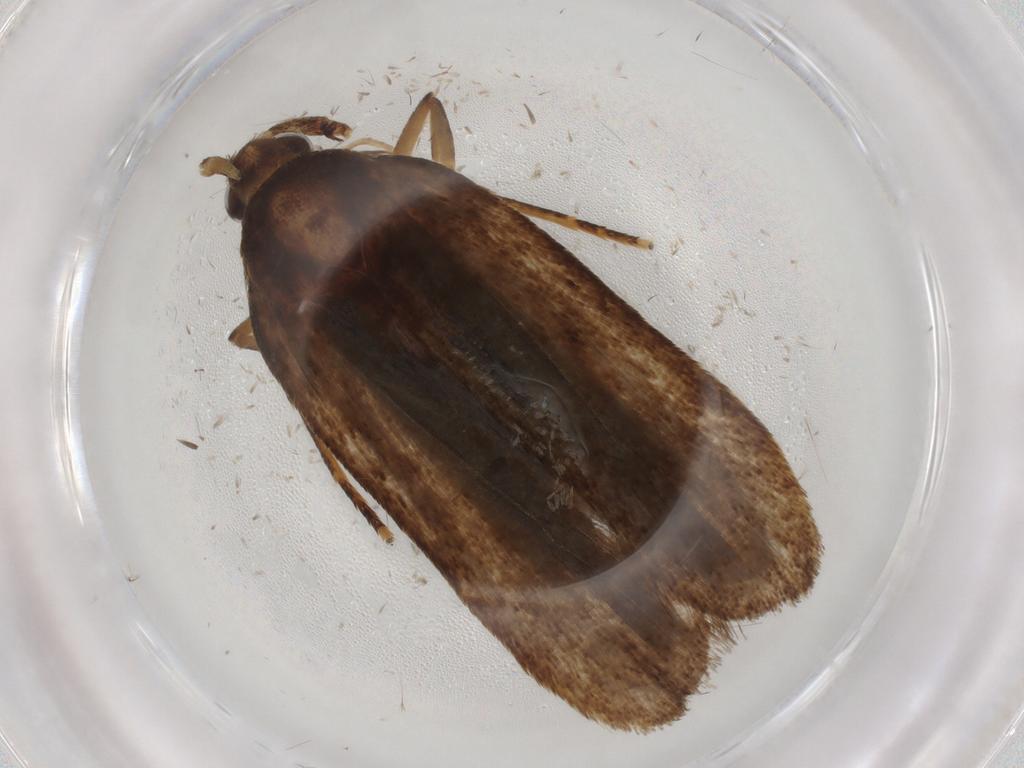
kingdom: Animalia
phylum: Arthropoda
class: Insecta
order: Lepidoptera
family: Autostichidae
